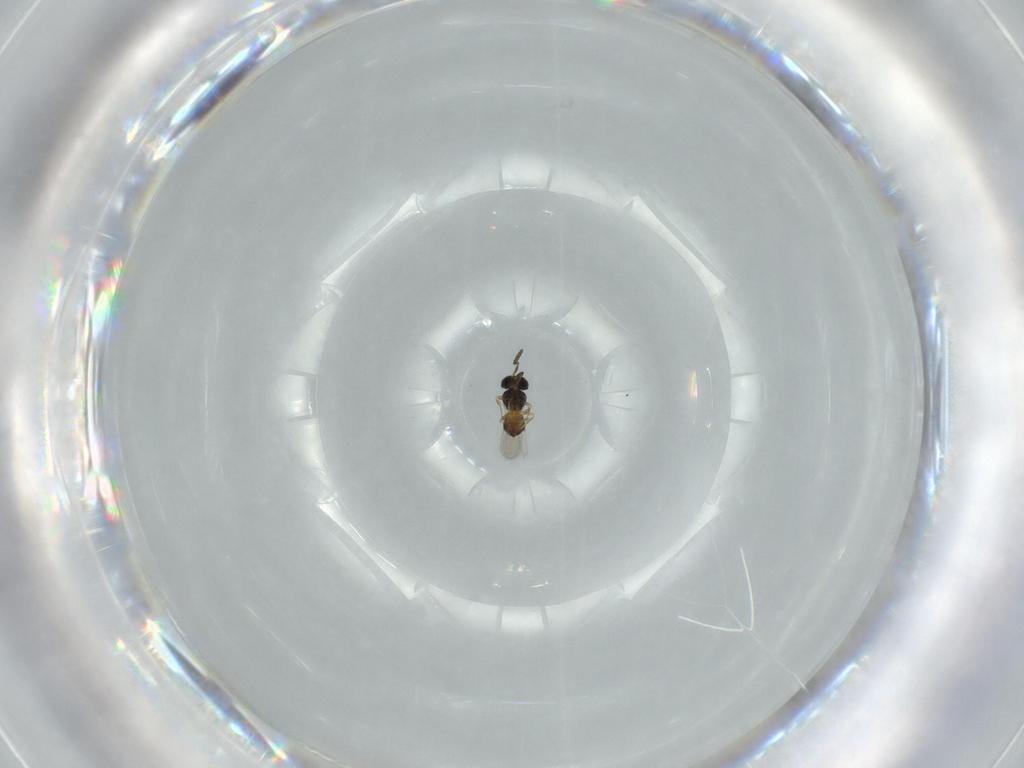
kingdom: Animalia
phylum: Arthropoda
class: Insecta
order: Hymenoptera
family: Scelionidae
